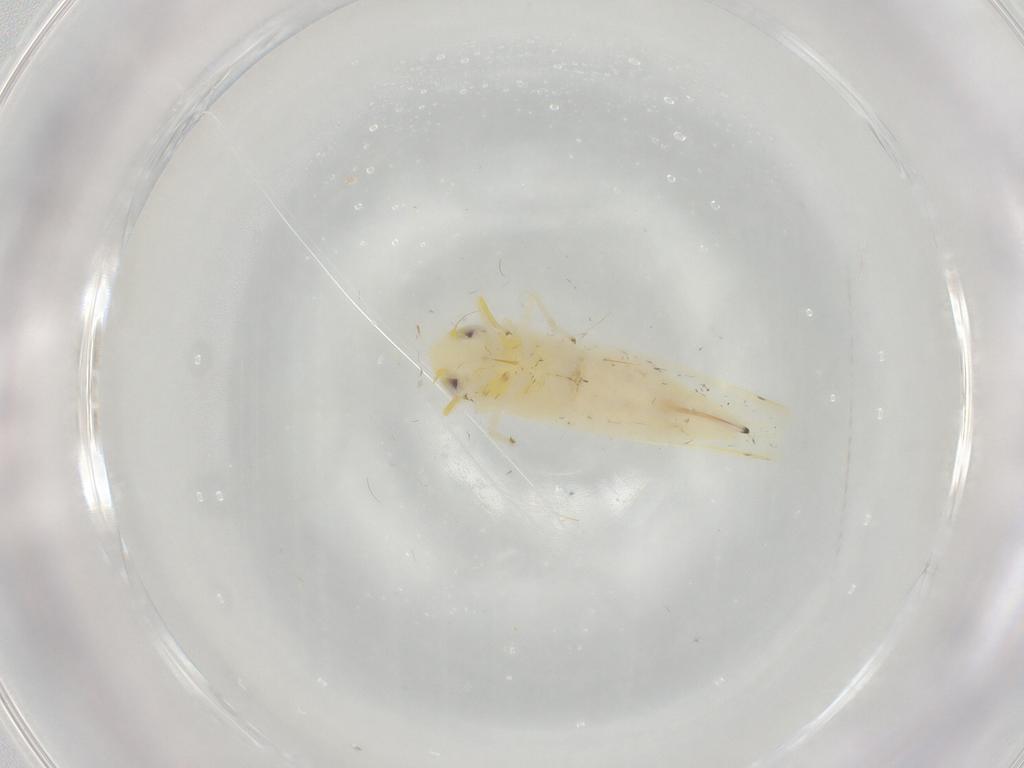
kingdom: Animalia
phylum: Arthropoda
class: Insecta
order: Hemiptera
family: Cicadellidae
